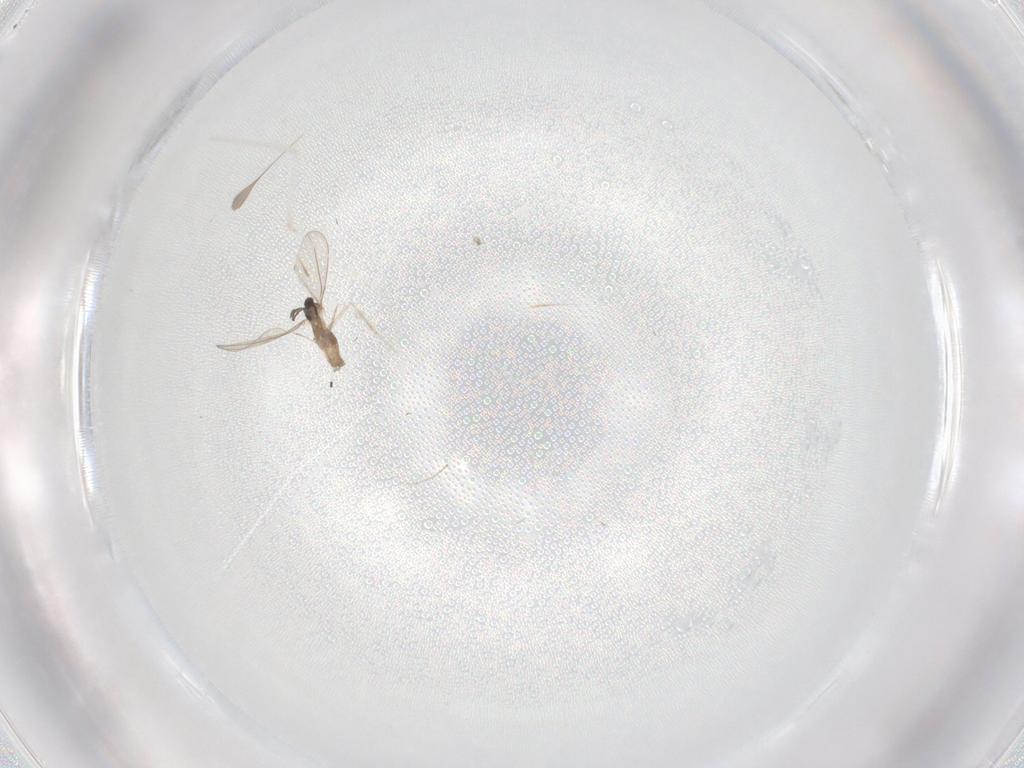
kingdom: Animalia
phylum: Arthropoda
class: Insecta
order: Diptera
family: Cecidomyiidae
